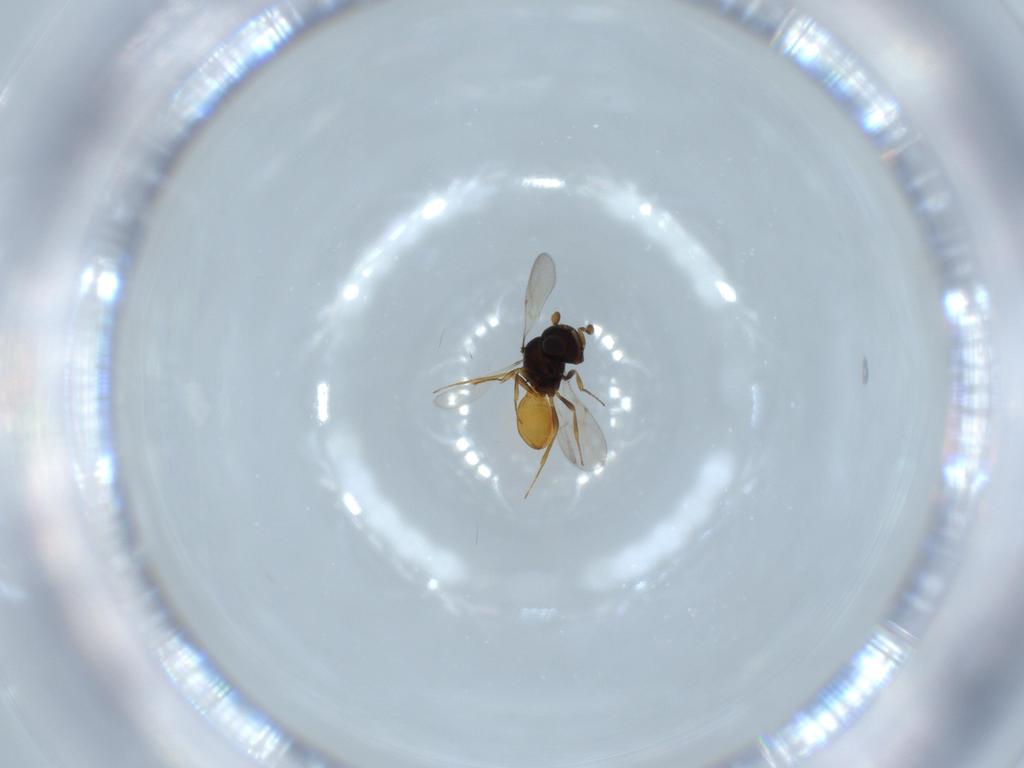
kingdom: Animalia
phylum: Arthropoda
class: Insecta
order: Hymenoptera
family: Scelionidae
